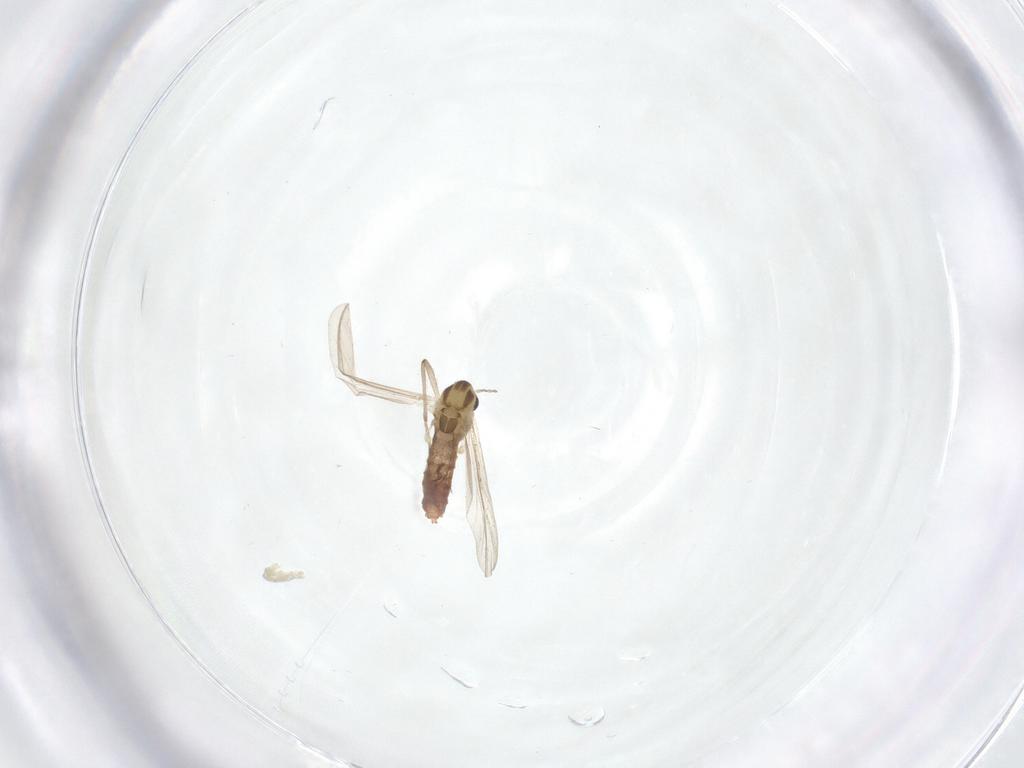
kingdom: Animalia
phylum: Arthropoda
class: Insecta
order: Diptera
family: Chironomidae
